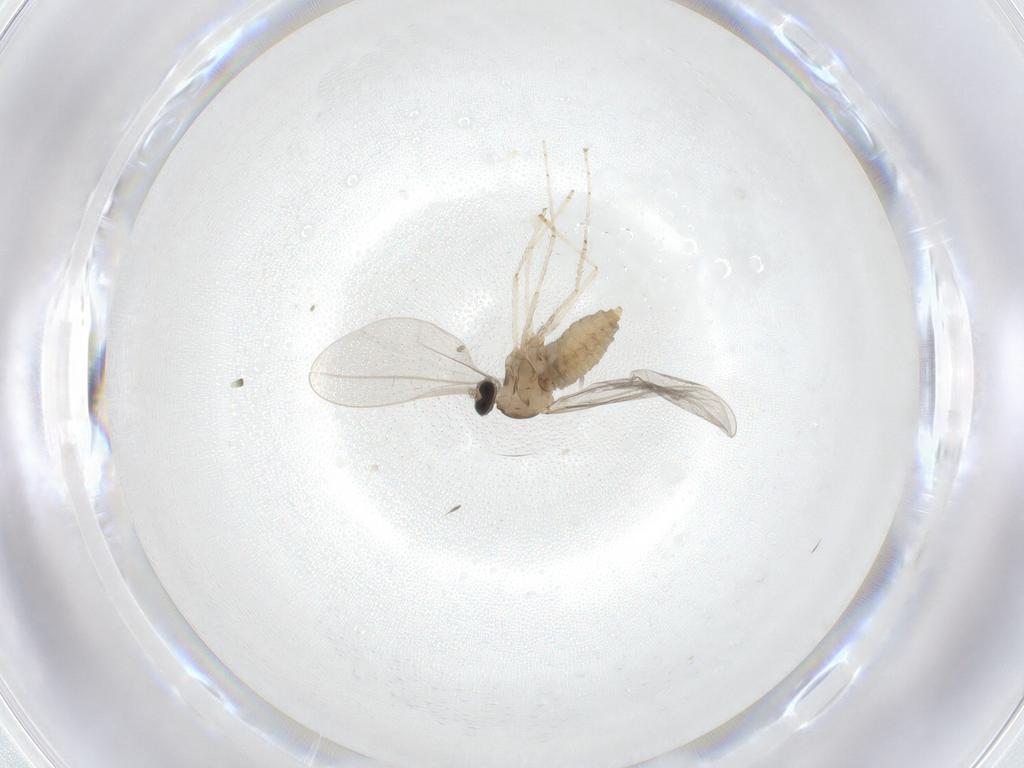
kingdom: Animalia
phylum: Arthropoda
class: Insecta
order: Diptera
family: Cecidomyiidae
